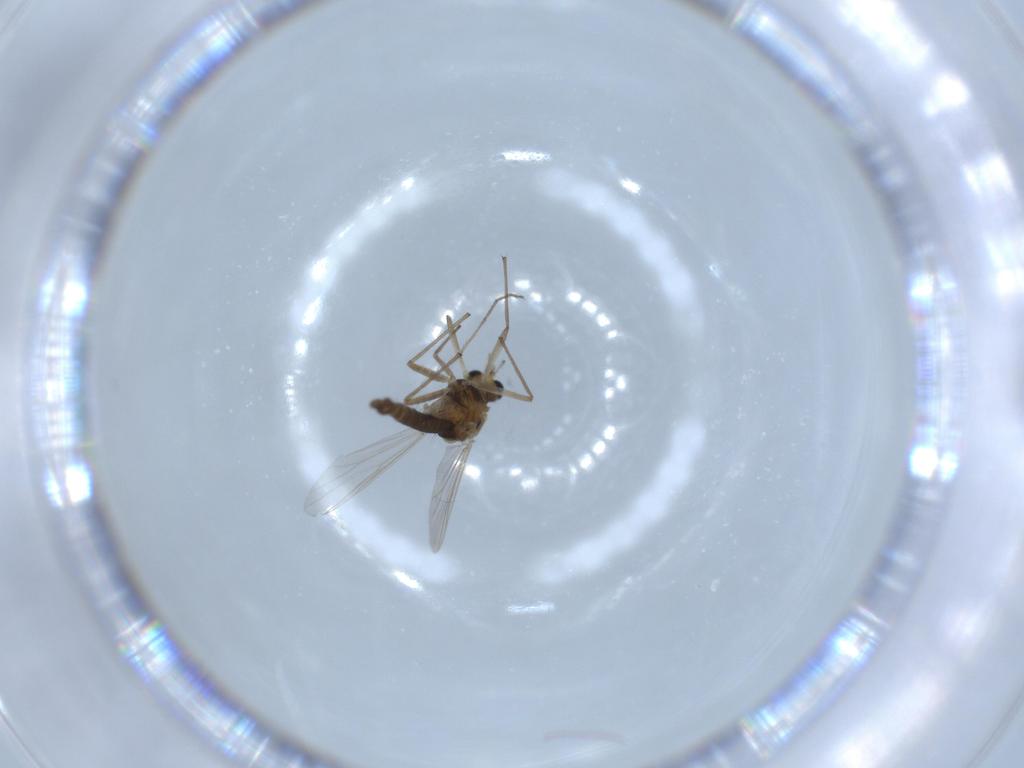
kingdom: Animalia
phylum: Arthropoda
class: Insecta
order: Diptera
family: Chironomidae
